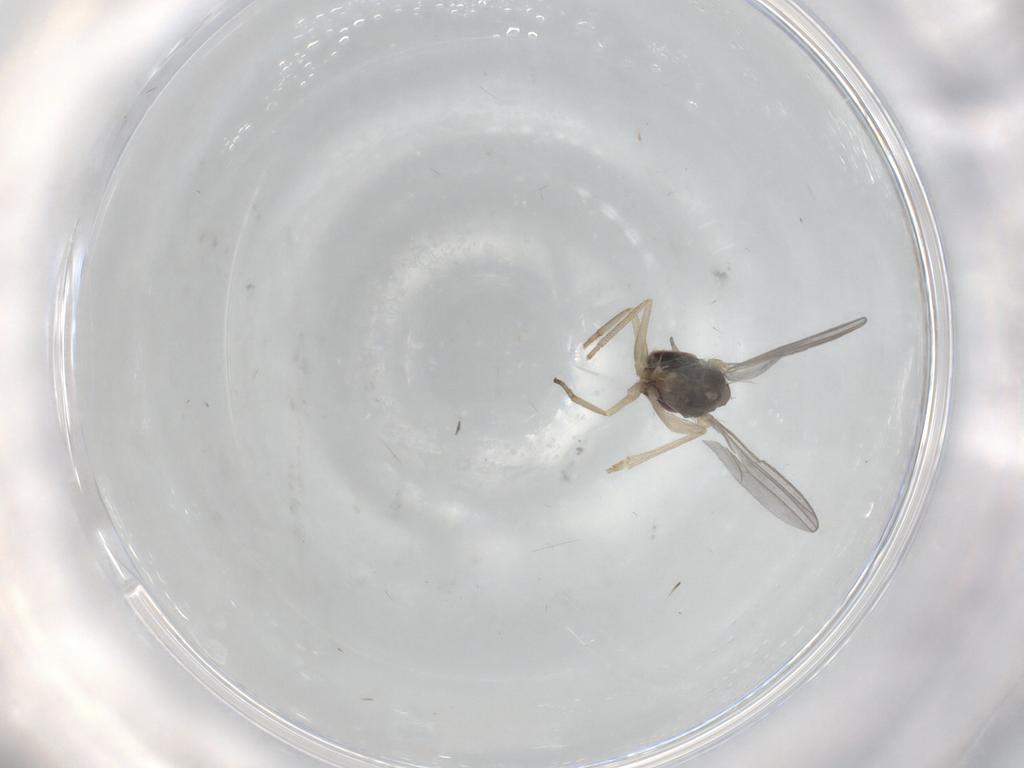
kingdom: Animalia
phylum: Arthropoda
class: Insecta
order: Diptera
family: Dolichopodidae
